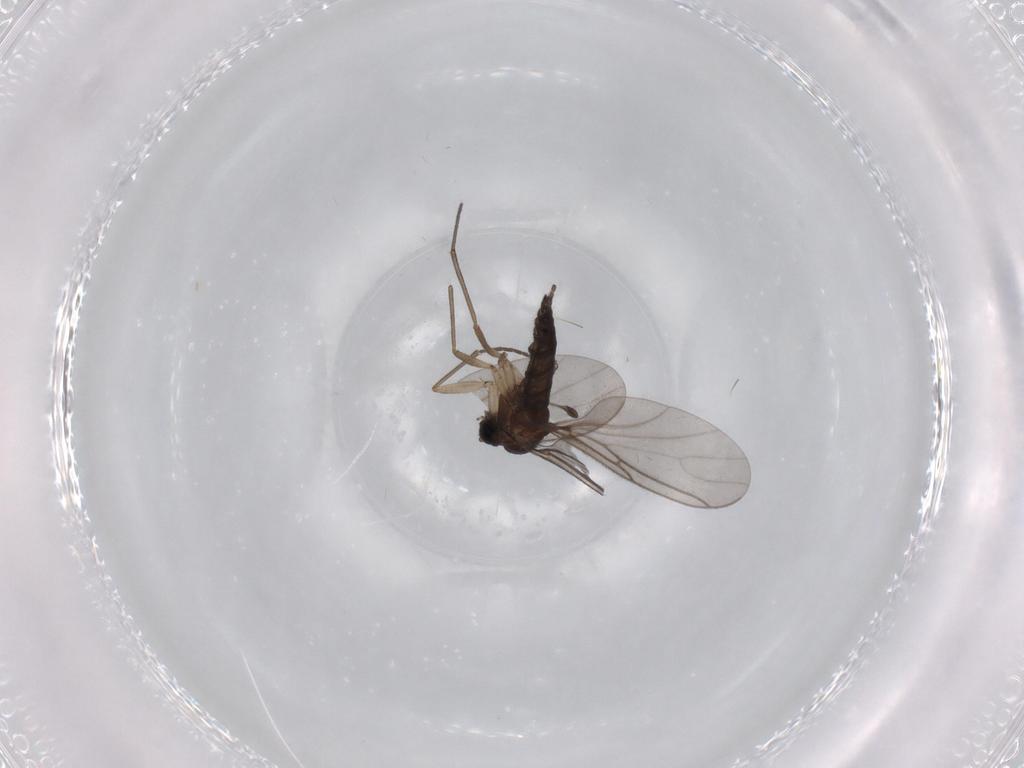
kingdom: Animalia
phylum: Arthropoda
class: Insecta
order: Diptera
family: Sciaridae
